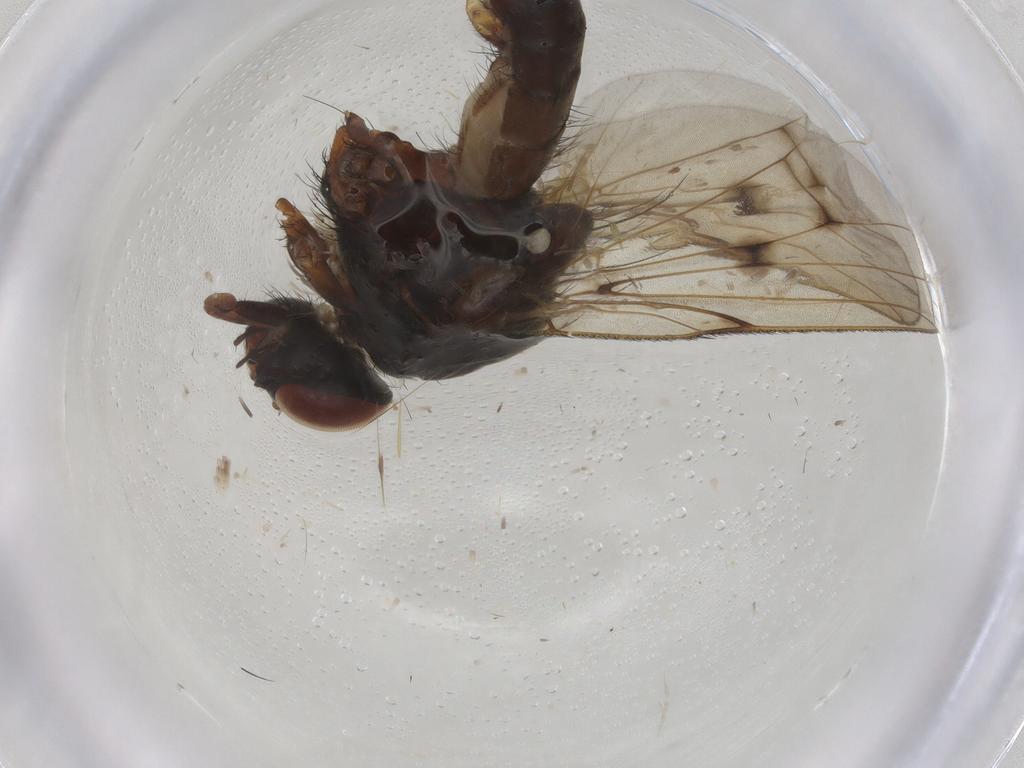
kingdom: Animalia
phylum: Arthropoda
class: Insecta
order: Diptera
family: Anthomyiidae
